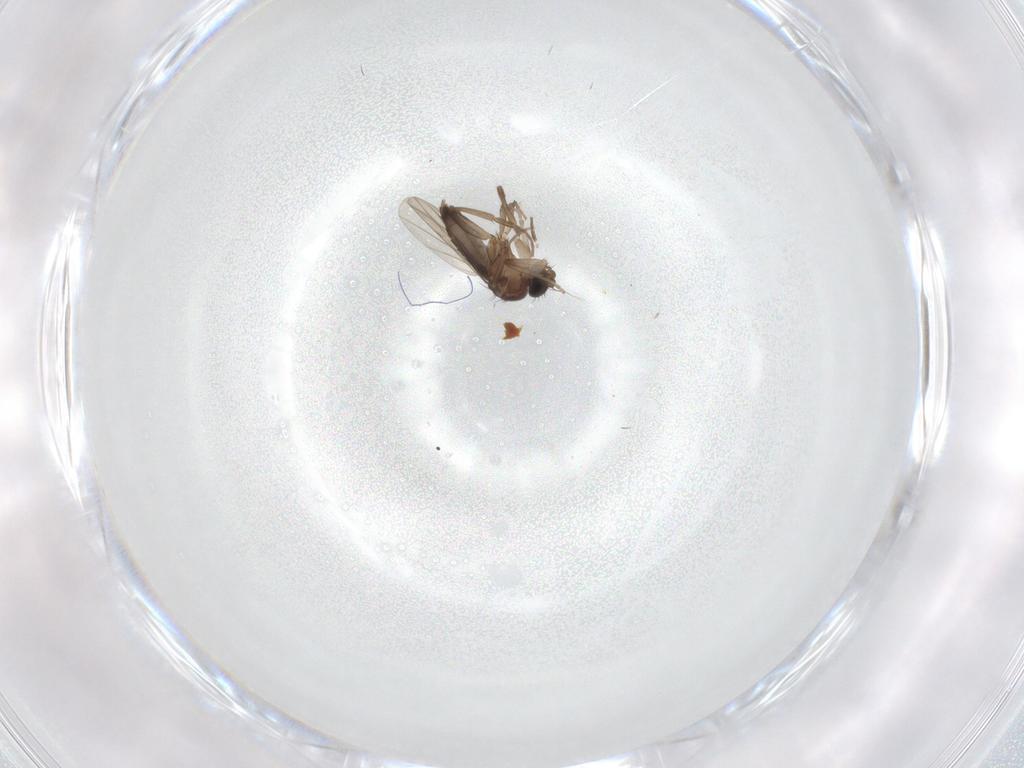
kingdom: Animalia
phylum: Arthropoda
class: Insecta
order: Diptera
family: Phoridae
